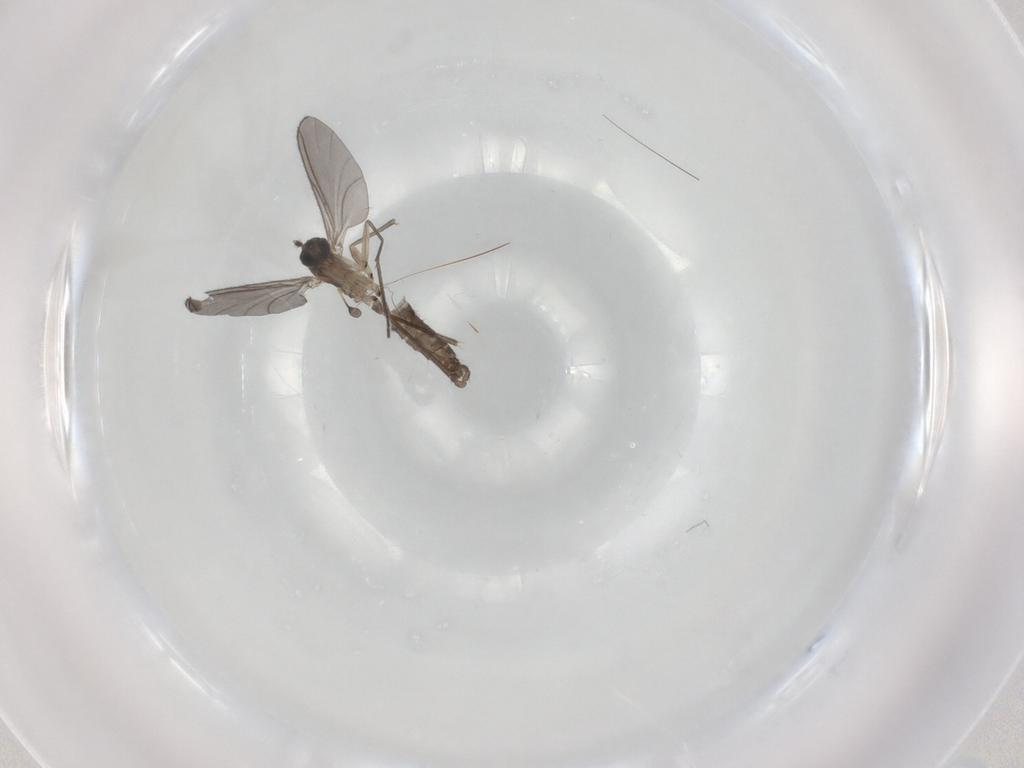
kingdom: Animalia
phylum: Arthropoda
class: Insecta
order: Diptera
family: Sciaridae
